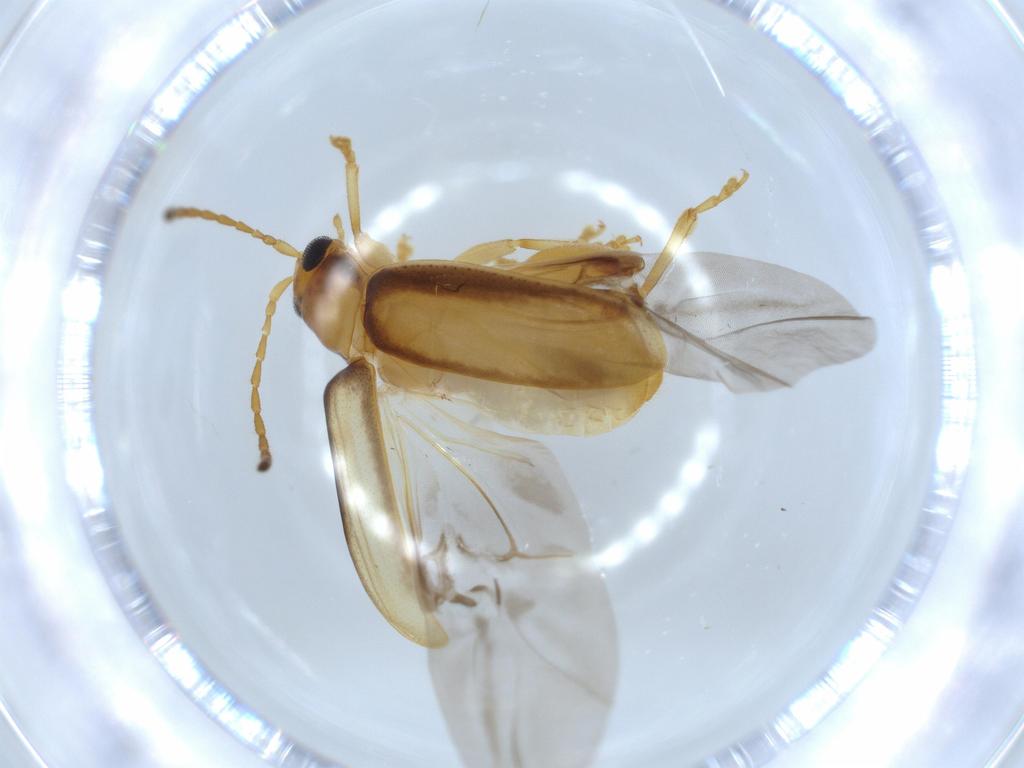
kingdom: Animalia
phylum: Arthropoda
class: Insecta
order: Coleoptera
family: Chrysomelidae
